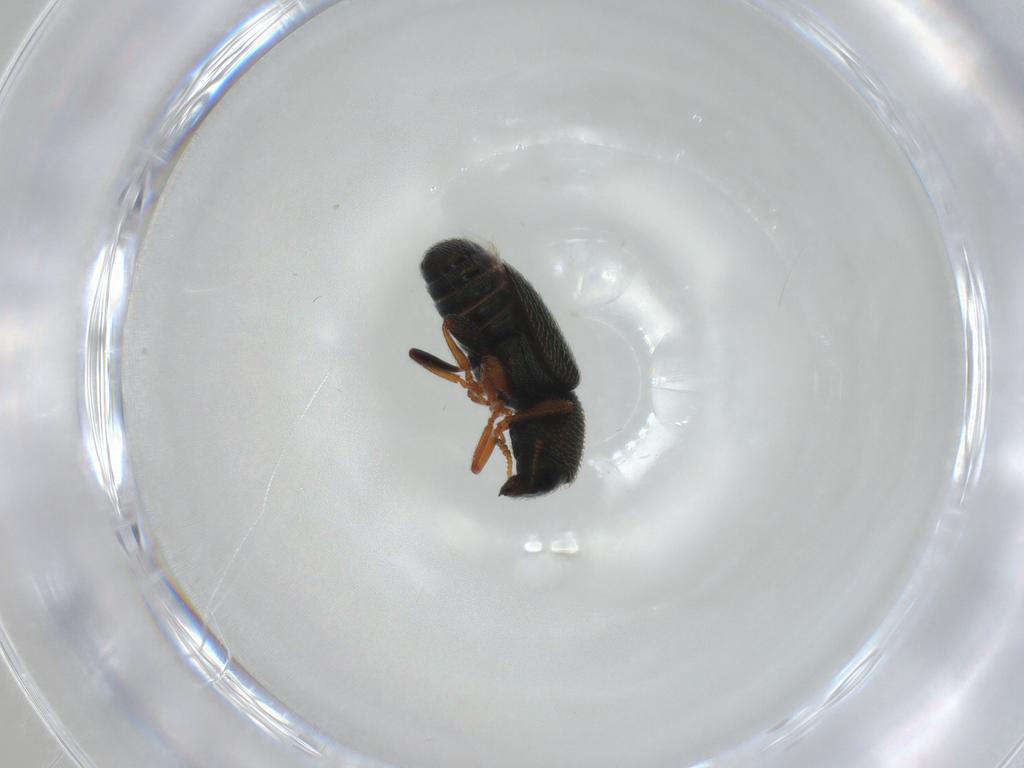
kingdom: Animalia
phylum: Arthropoda
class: Insecta
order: Coleoptera
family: Anthribidae
